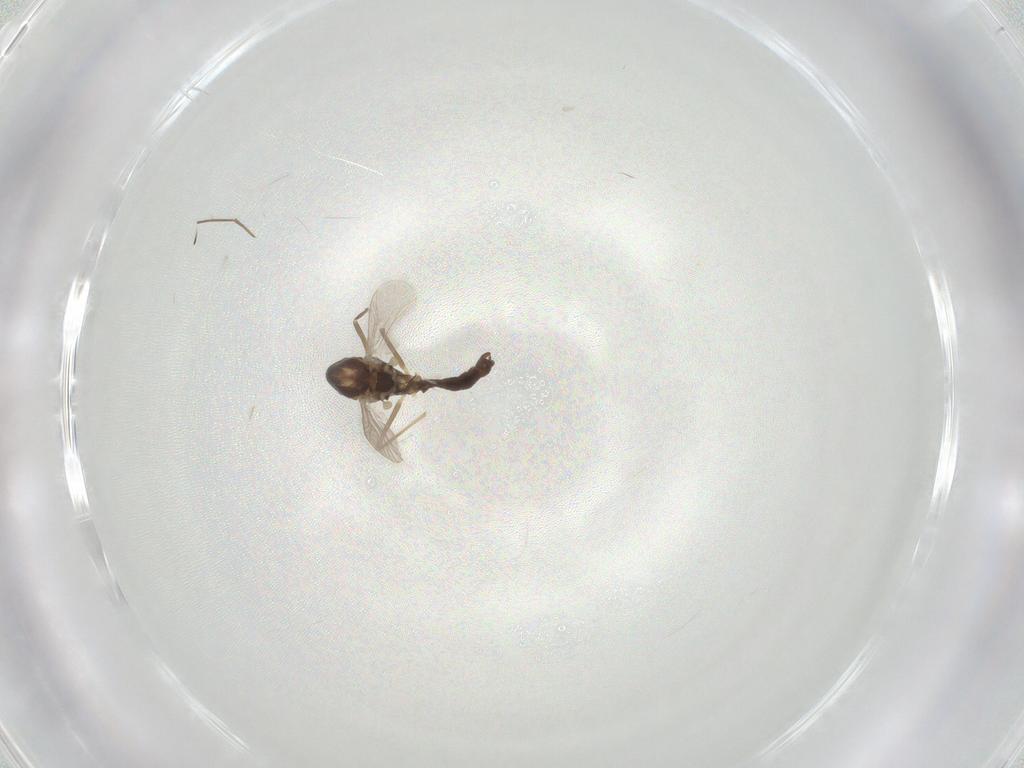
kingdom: Animalia
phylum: Arthropoda
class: Insecta
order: Diptera
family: Chironomidae
